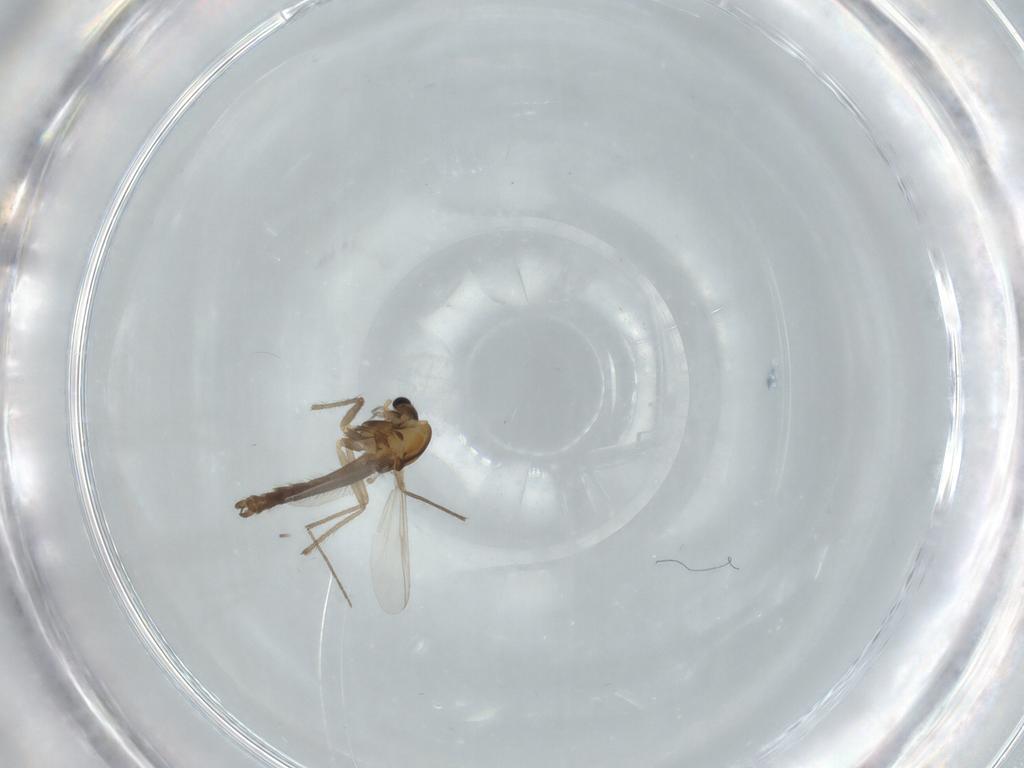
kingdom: Animalia
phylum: Arthropoda
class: Insecta
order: Diptera
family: Chironomidae
